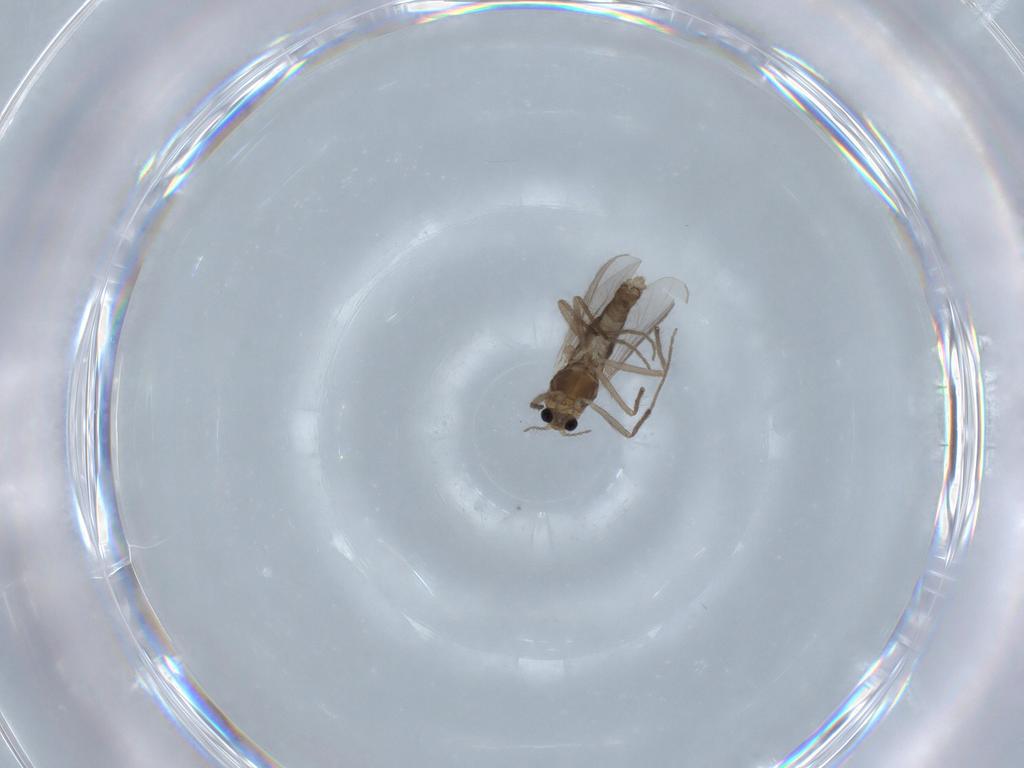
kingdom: Animalia
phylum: Arthropoda
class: Insecta
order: Diptera
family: Chironomidae
